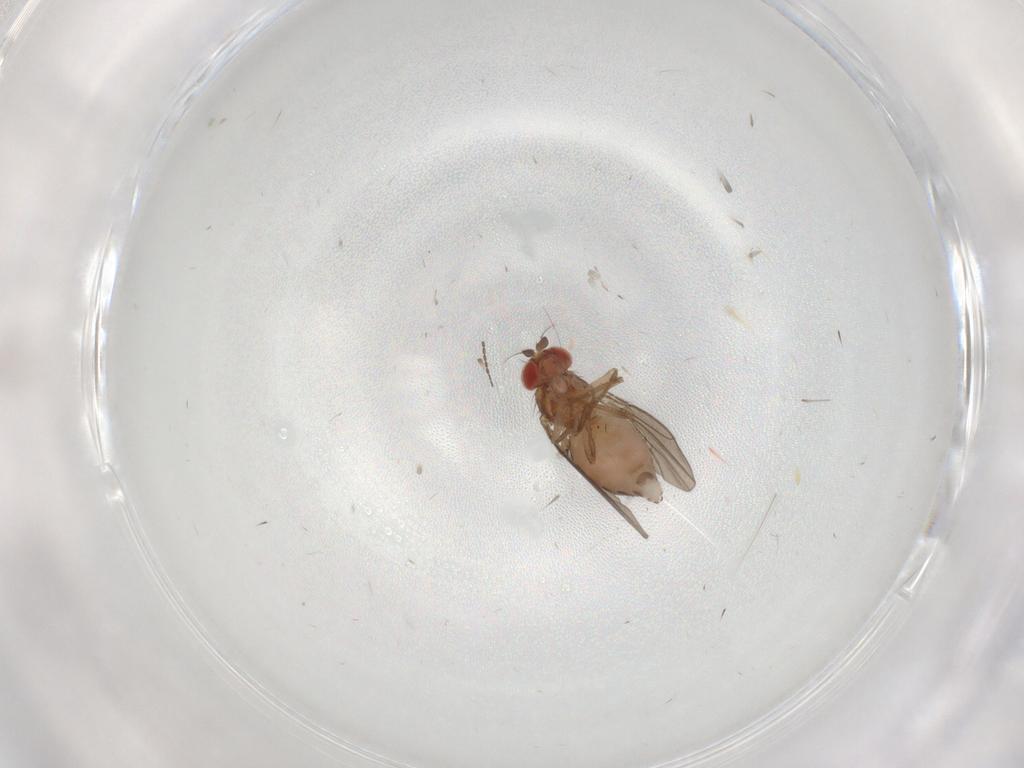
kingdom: Animalia
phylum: Arthropoda
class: Insecta
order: Diptera
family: Drosophilidae
